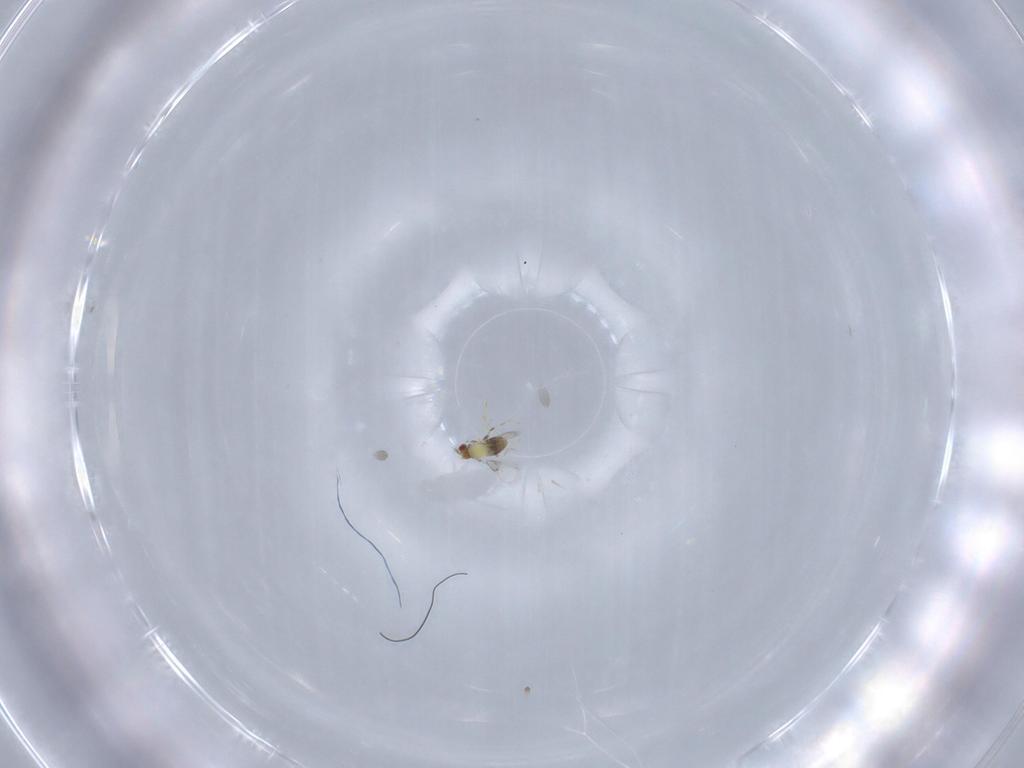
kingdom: Animalia
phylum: Arthropoda
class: Insecta
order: Hymenoptera
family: Trichogrammatidae
